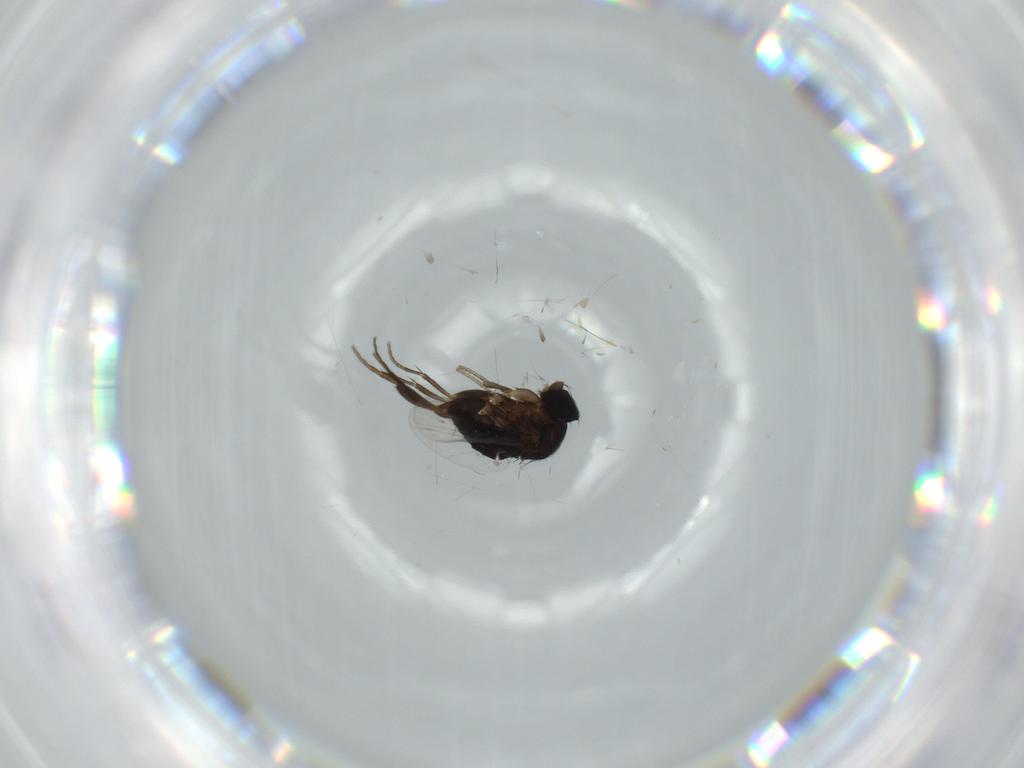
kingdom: Animalia
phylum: Arthropoda
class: Insecta
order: Diptera
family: Phoridae
